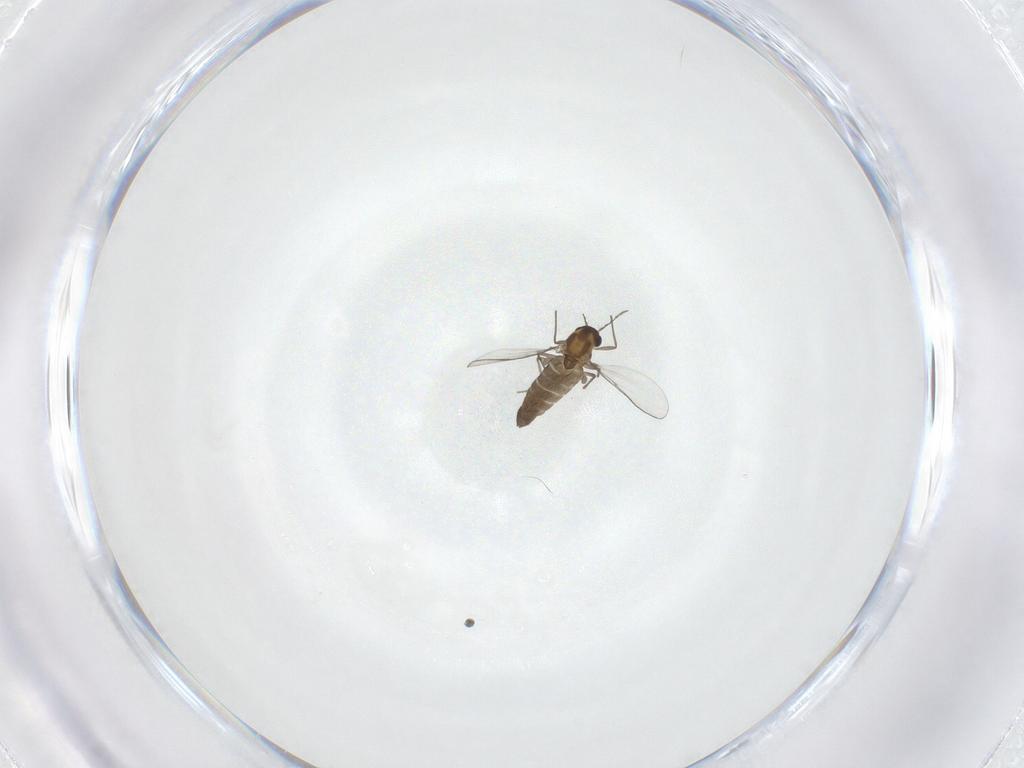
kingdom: Animalia
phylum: Arthropoda
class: Insecta
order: Diptera
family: Chironomidae
